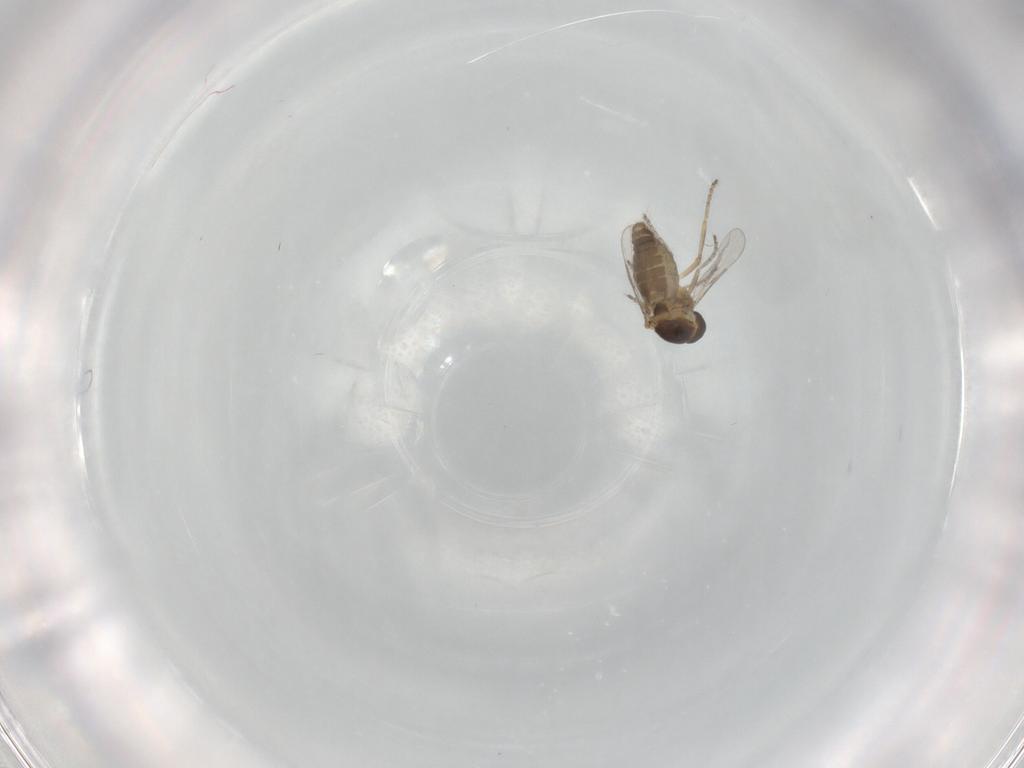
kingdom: Animalia
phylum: Arthropoda
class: Insecta
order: Diptera
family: Ceratopogonidae
